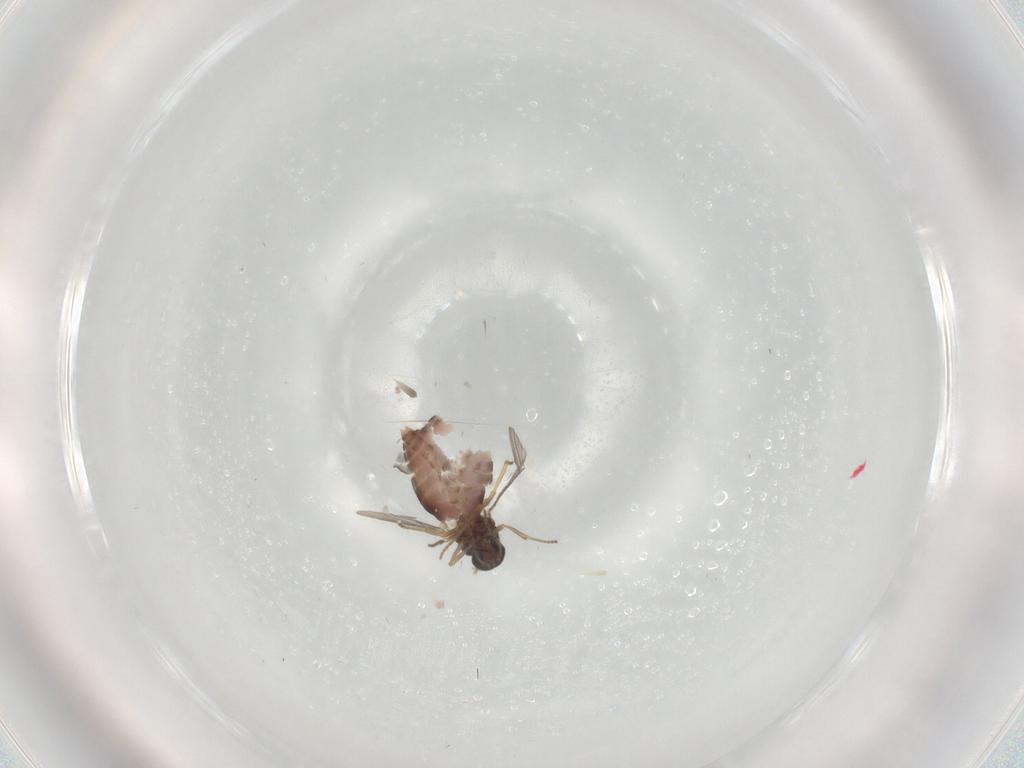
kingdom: Animalia
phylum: Arthropoda
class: Insecta
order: Diptera
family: Ceratopogonidae
